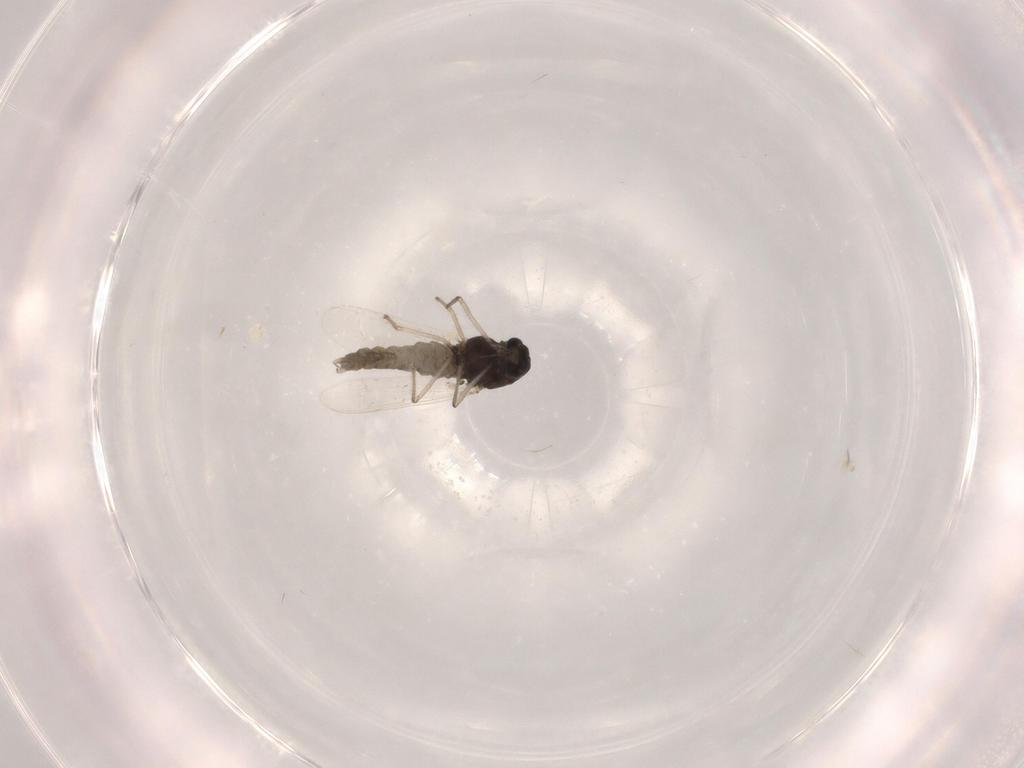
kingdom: Animalia
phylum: Arthropoda
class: Insecta
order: Diptera
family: Chironomidae
